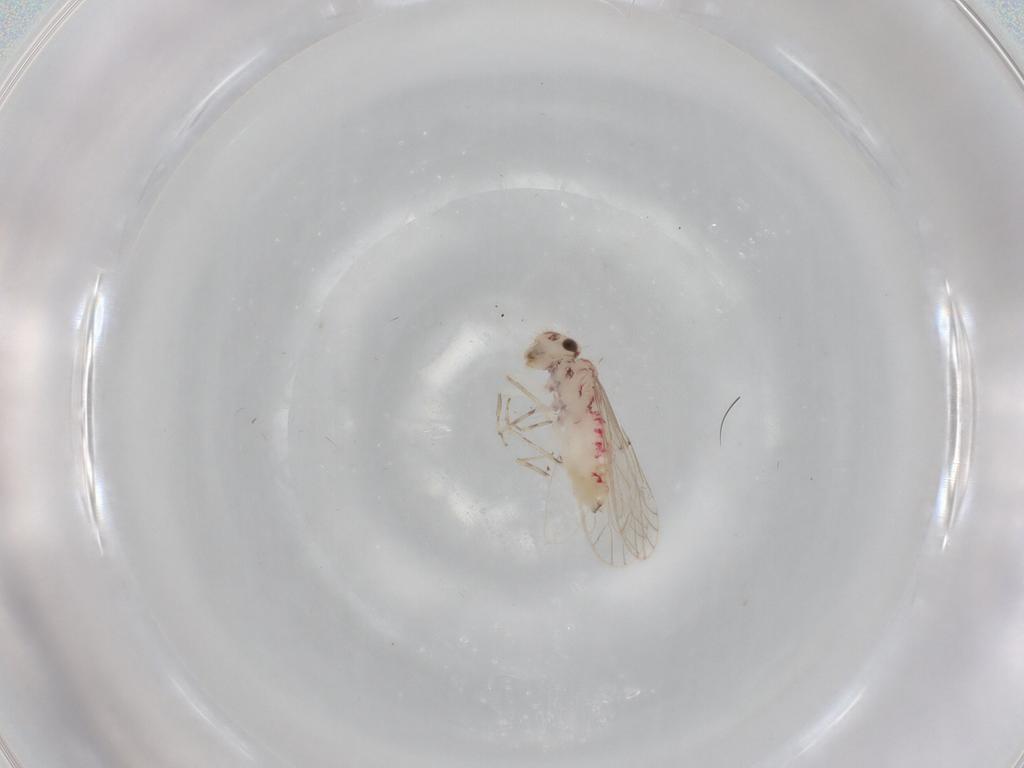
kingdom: Animalia
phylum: Arthropoda
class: Insecta
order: Psocodea
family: Caeciliusidae
